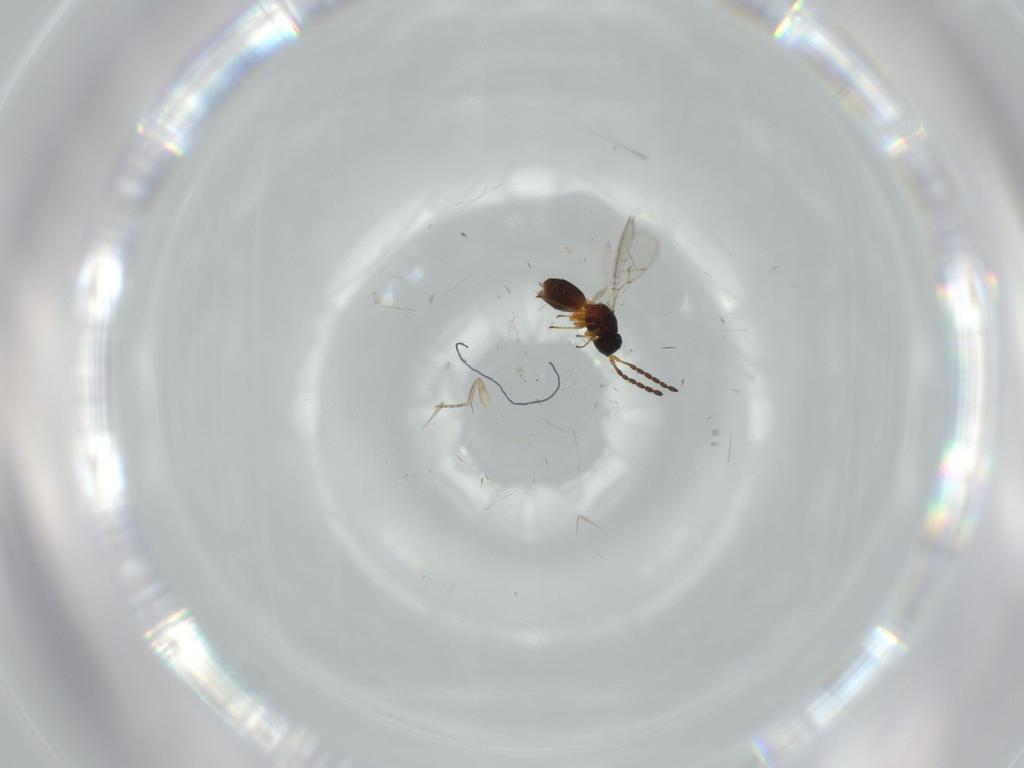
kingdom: Animalia
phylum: Arthropoda
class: Insecta
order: Hymenoptera
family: Figitidae
